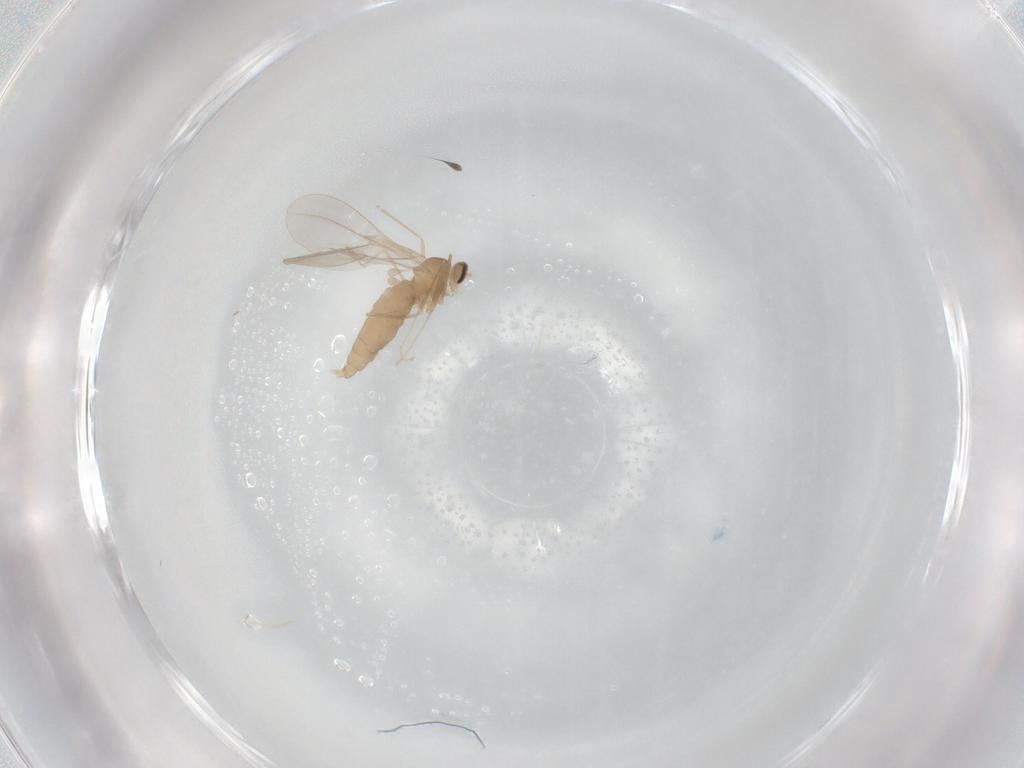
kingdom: Animalia
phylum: Arthropoda
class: Insecta
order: Diptera
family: Cecidomyiidae
